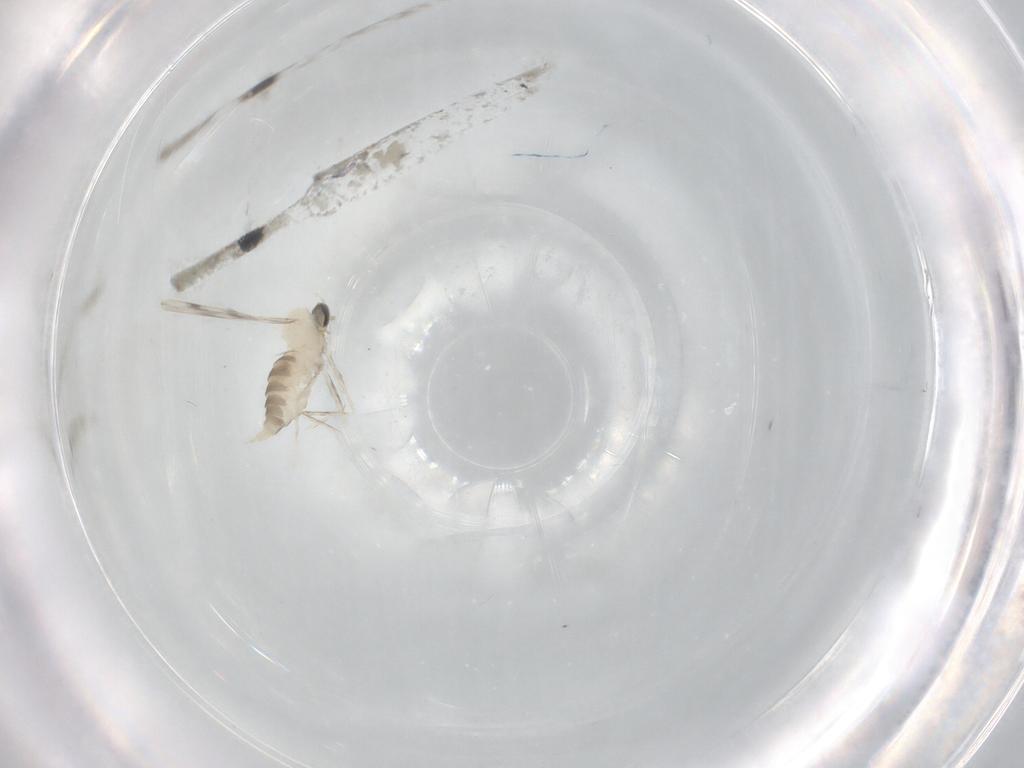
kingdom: Animalia
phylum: Arthropoda
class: Insecta
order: Diptera
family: Cecidomyiidae
